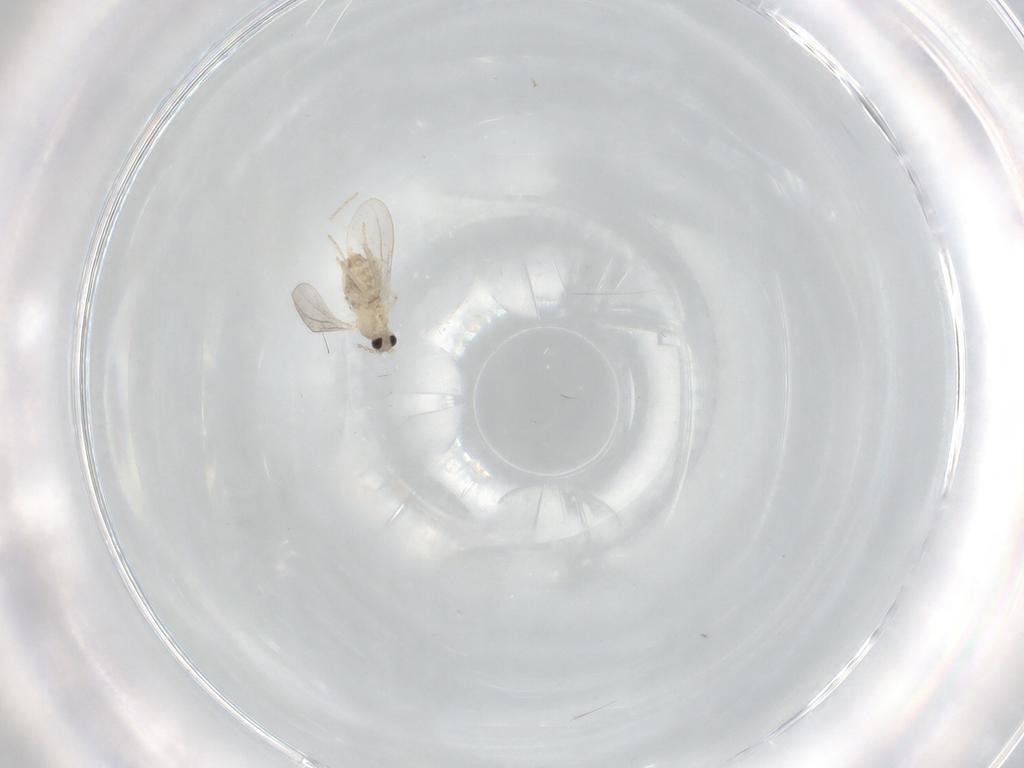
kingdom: Animalia
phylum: Arthropoda
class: Insecta
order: Diptera
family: Cecidomyiidae
